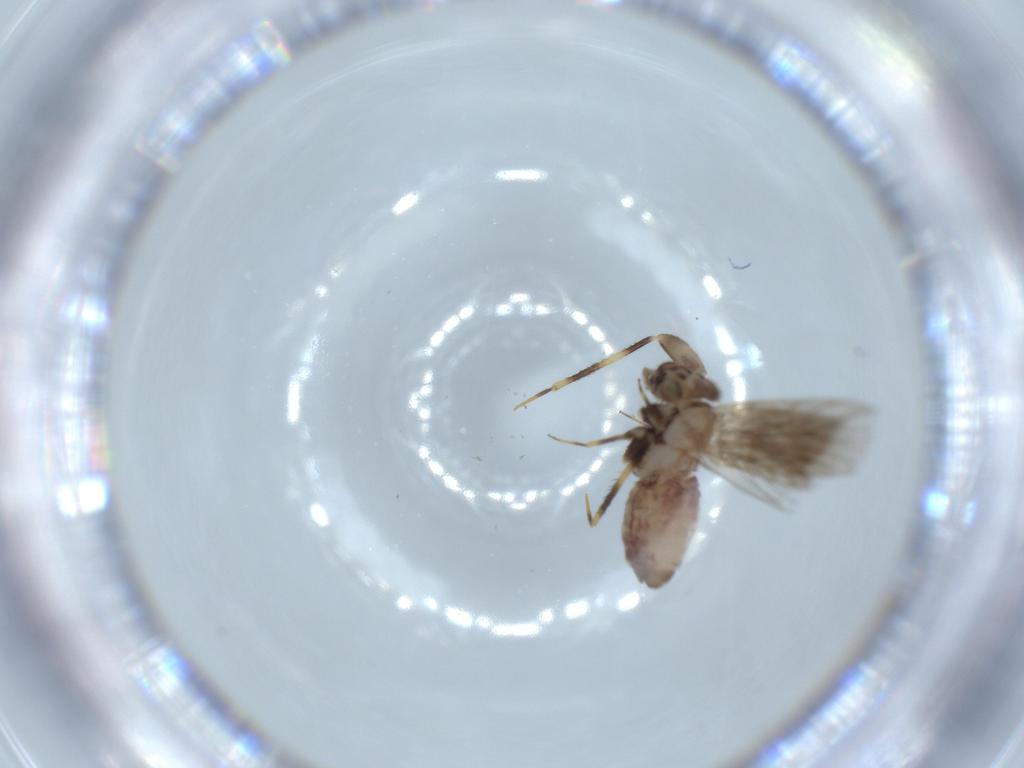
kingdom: Animalia
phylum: Arthropoda
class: Insecta
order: Psocodea
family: Lepidopsocidae
